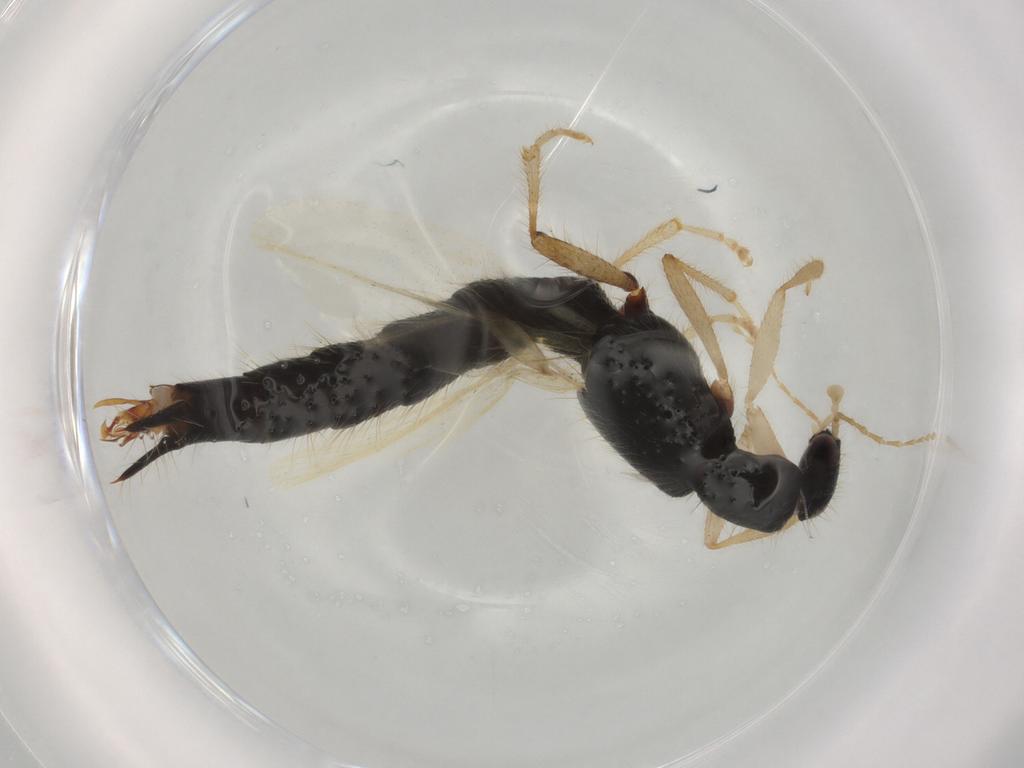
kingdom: Animalia
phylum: Arthropoda
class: Insecta
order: Coleoptera
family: Staphylinidae
